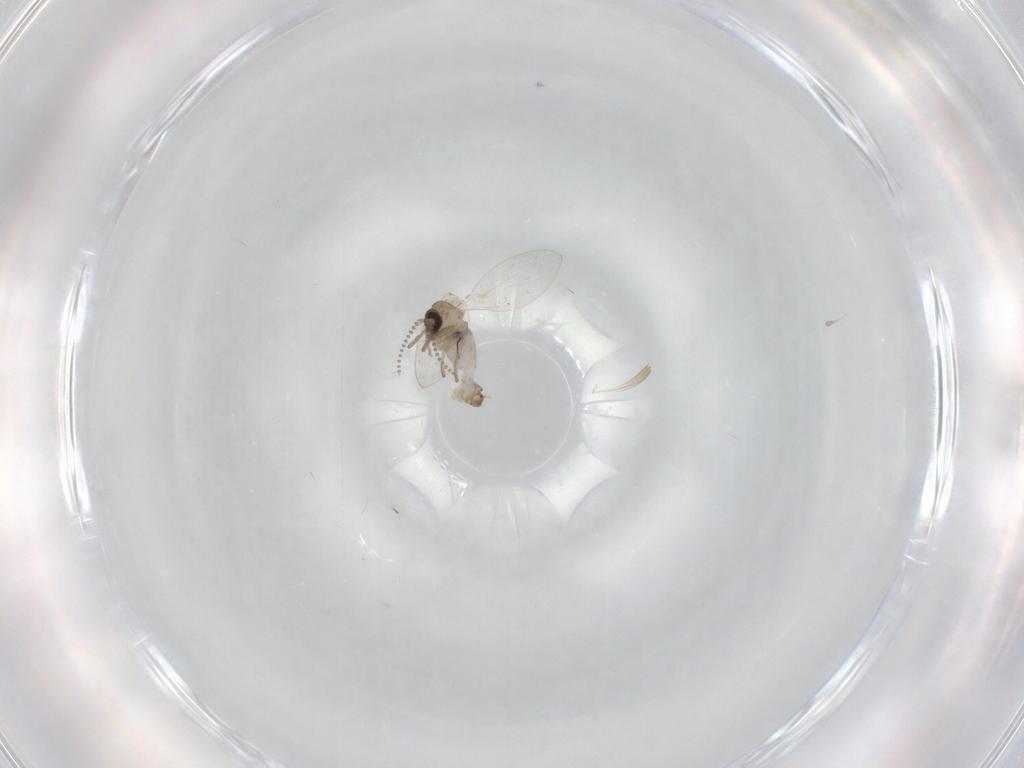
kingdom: Animalia
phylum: Arthropoda
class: Insecta
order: Diptera
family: Psychodidae
